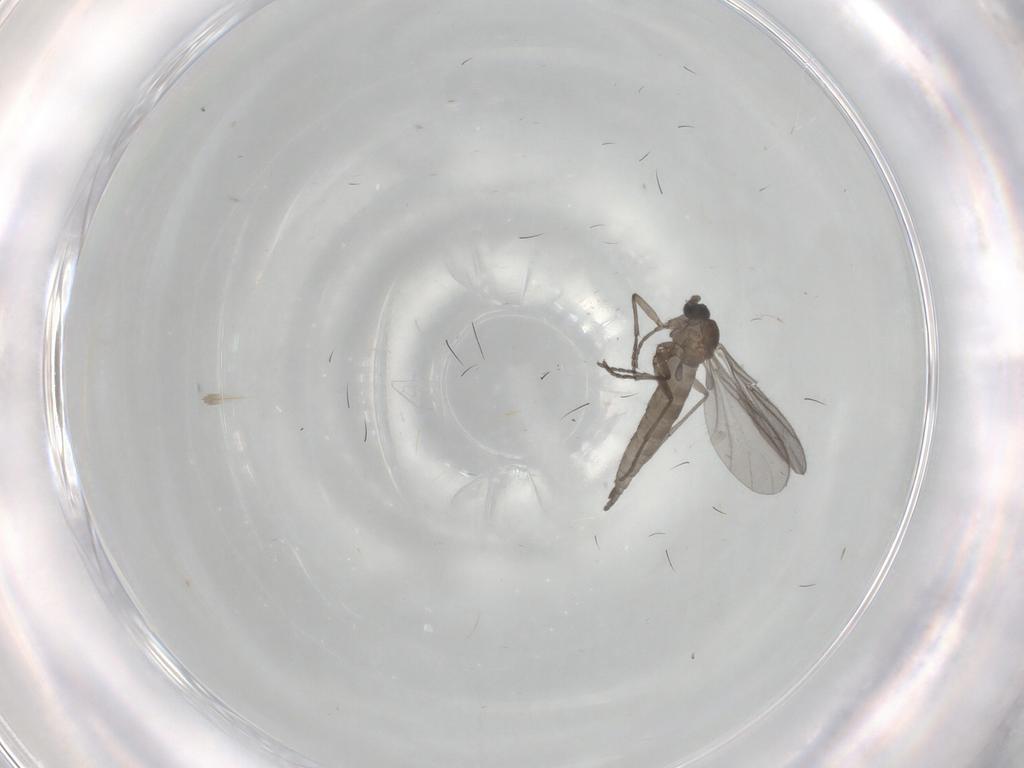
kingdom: Animalia
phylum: Arthropoda
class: Insecta
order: Diptera
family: Sciaridae
